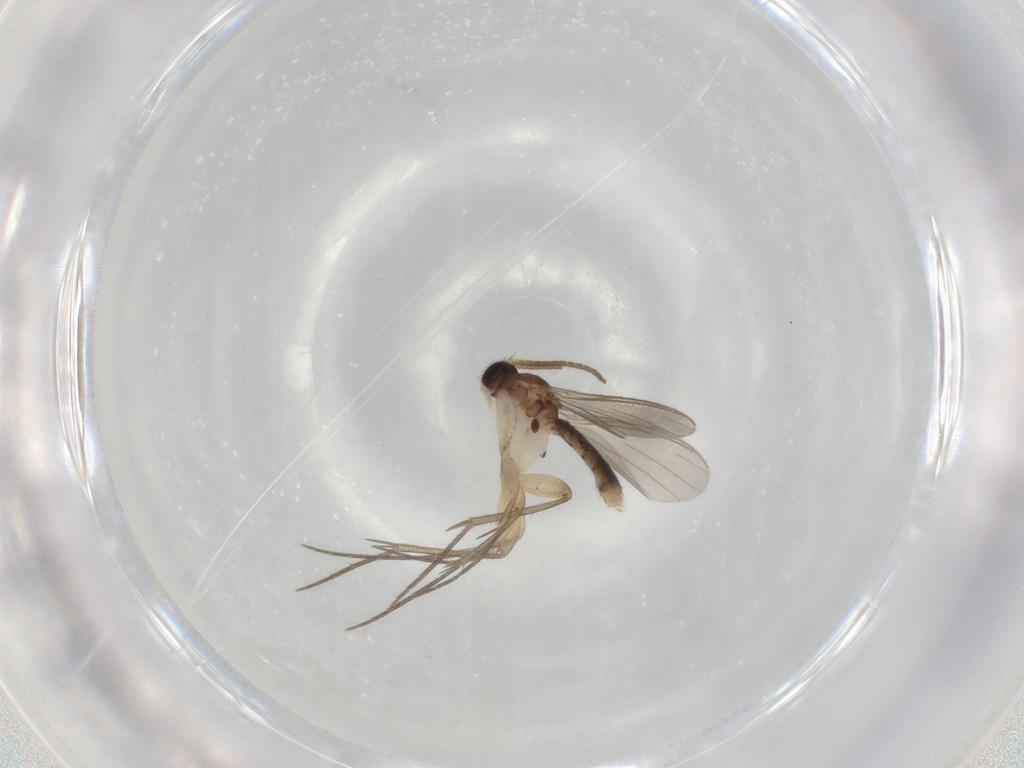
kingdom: Animalia
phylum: Arthropoda
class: Insecta
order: Diptera
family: Mycetophilidae
